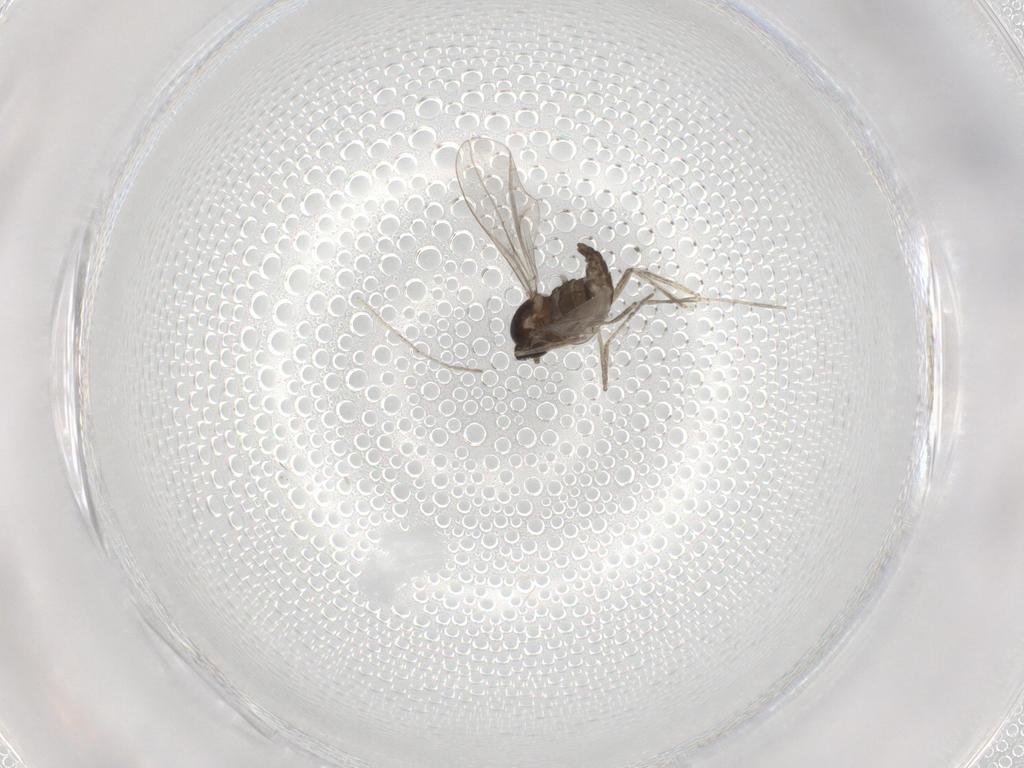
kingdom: Animalia
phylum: Arthropoda
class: Insecta
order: Diptera
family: Cecidomyiidae
